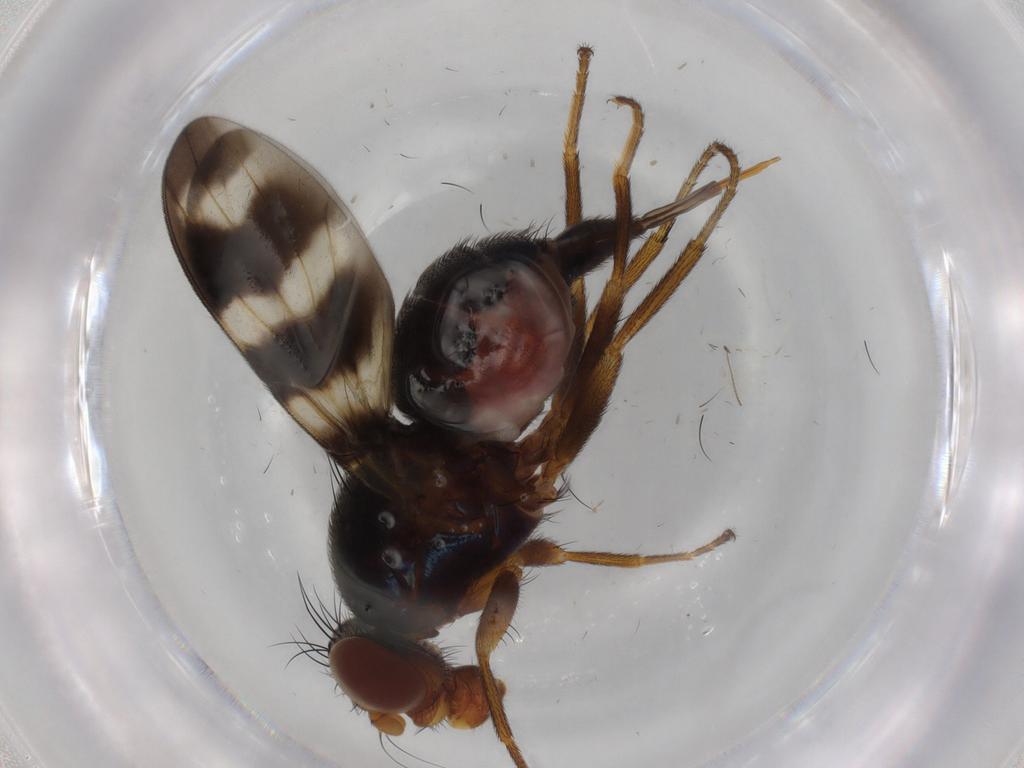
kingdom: Animalia
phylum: Arthropoda
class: Insecta
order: Diptera
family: Ulidiidae
